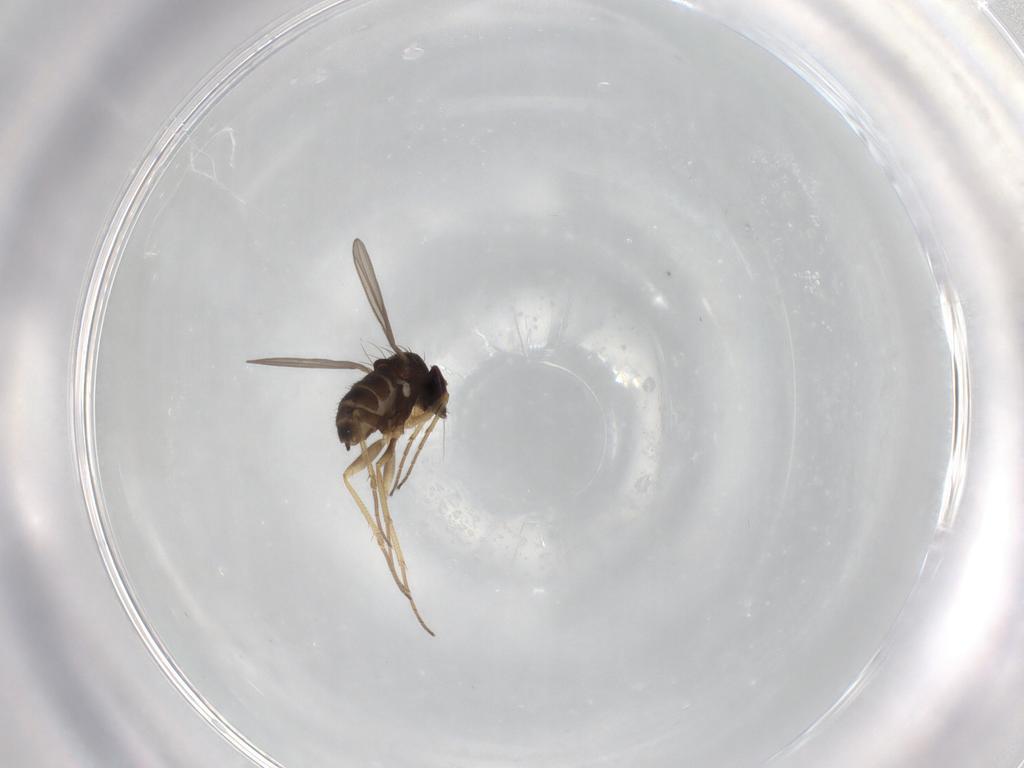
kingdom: Animalia
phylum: Arthropoda
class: Insecta
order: Diptera
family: Dolichopodidae
